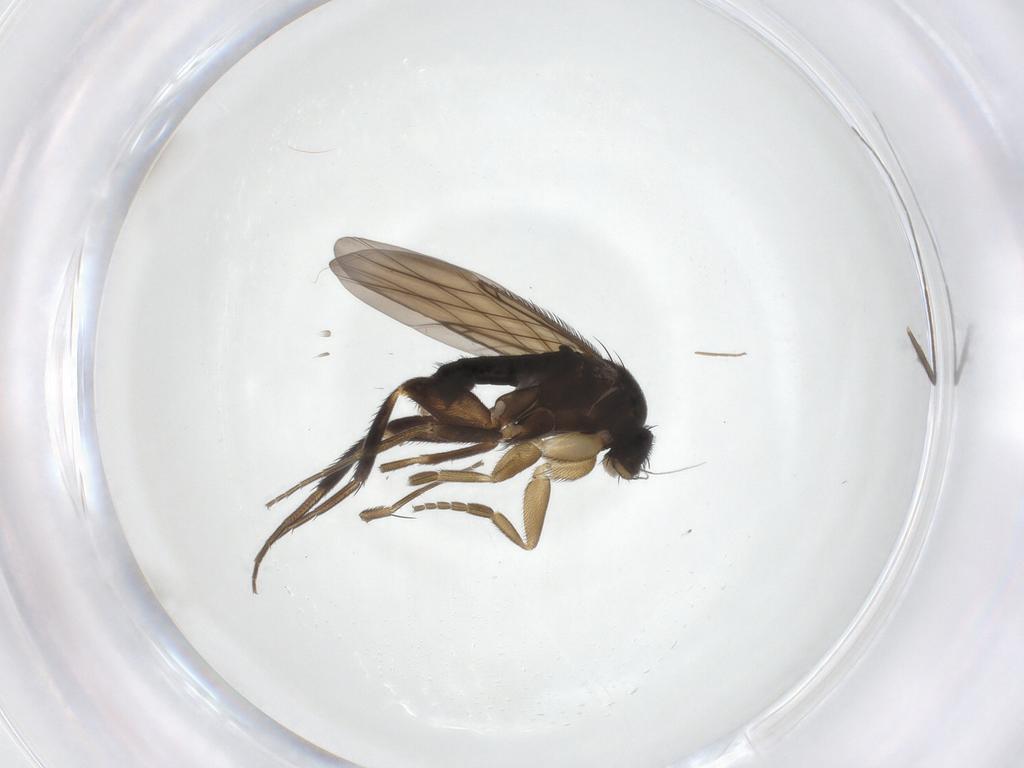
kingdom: Animalia
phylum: Arthropoda
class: Insecta
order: Diptera
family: Phoridae
